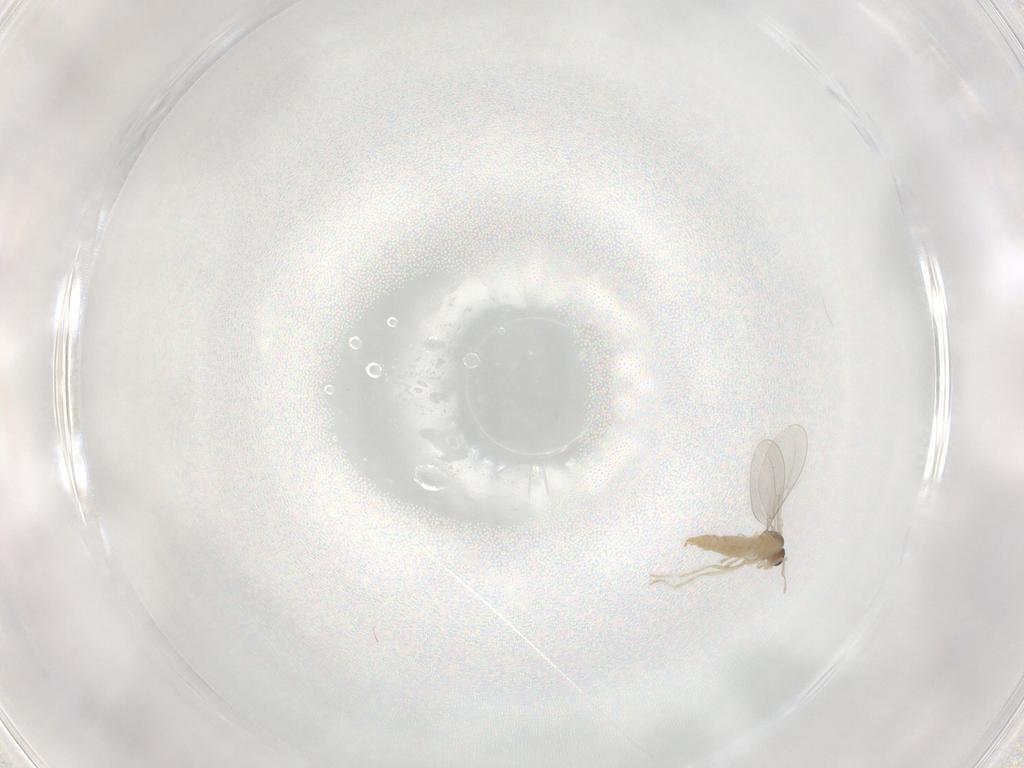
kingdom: Animalia
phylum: Arthropoda
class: Insecta
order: Diptera
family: Cecidomyiidae
